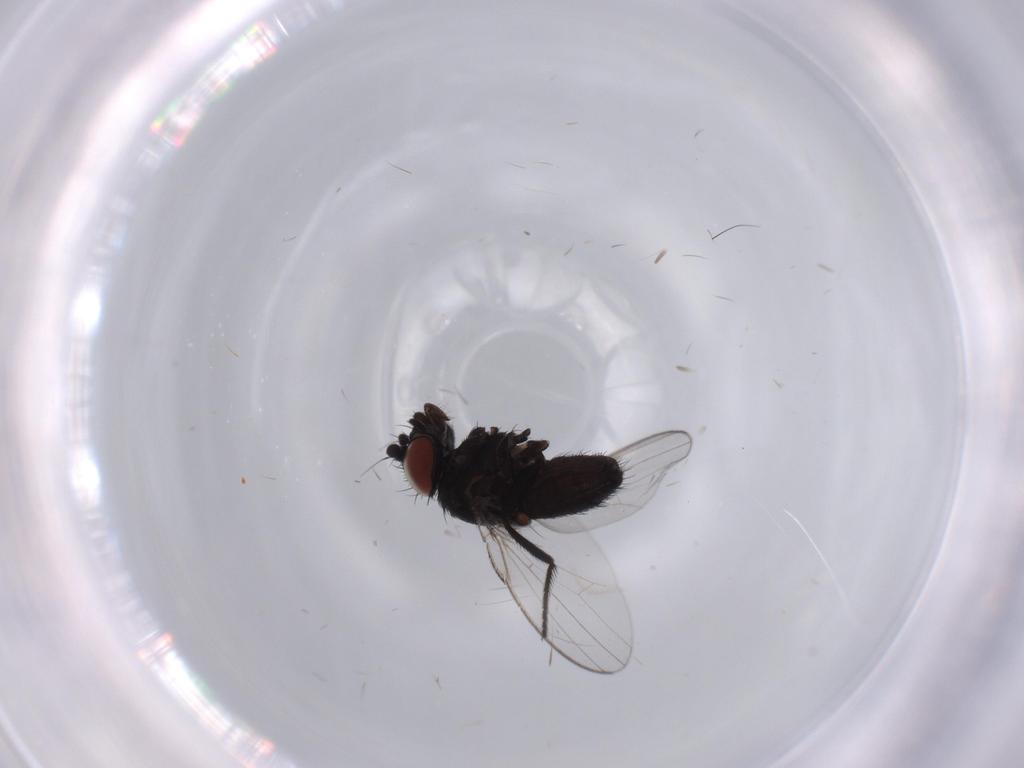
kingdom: Animalia
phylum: Arthropoda
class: Insecta
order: Diptera
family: Milichiidae
